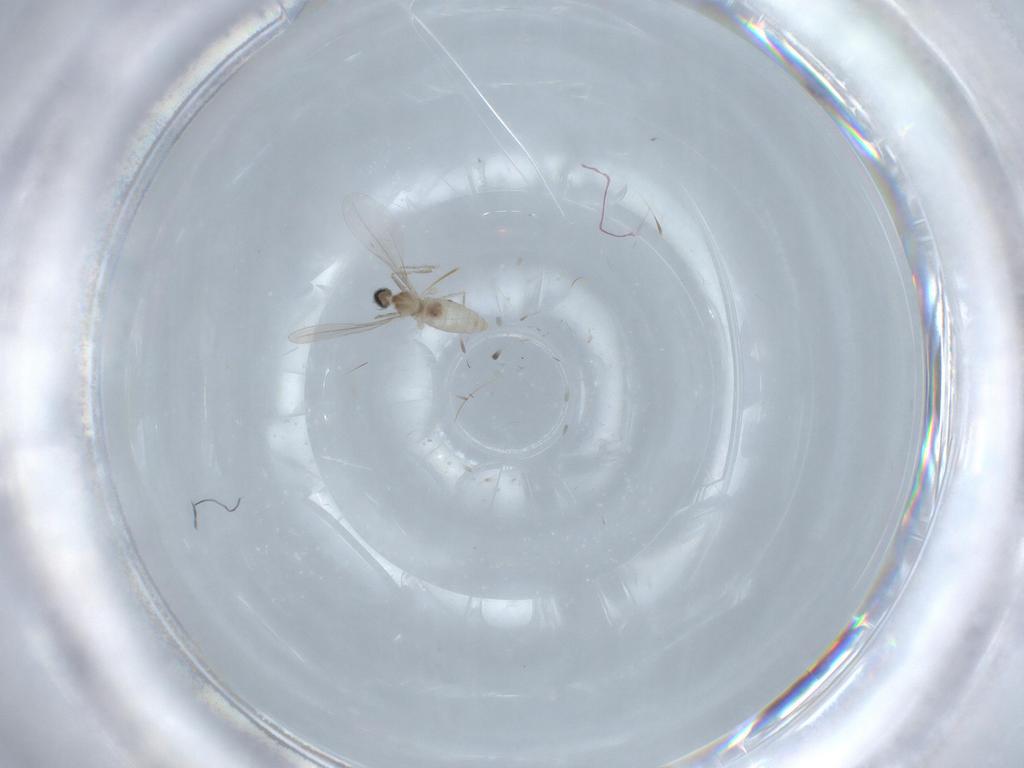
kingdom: Animalia
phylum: Arthropoda
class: Insecta
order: Diptera
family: Cecidomyiidae
